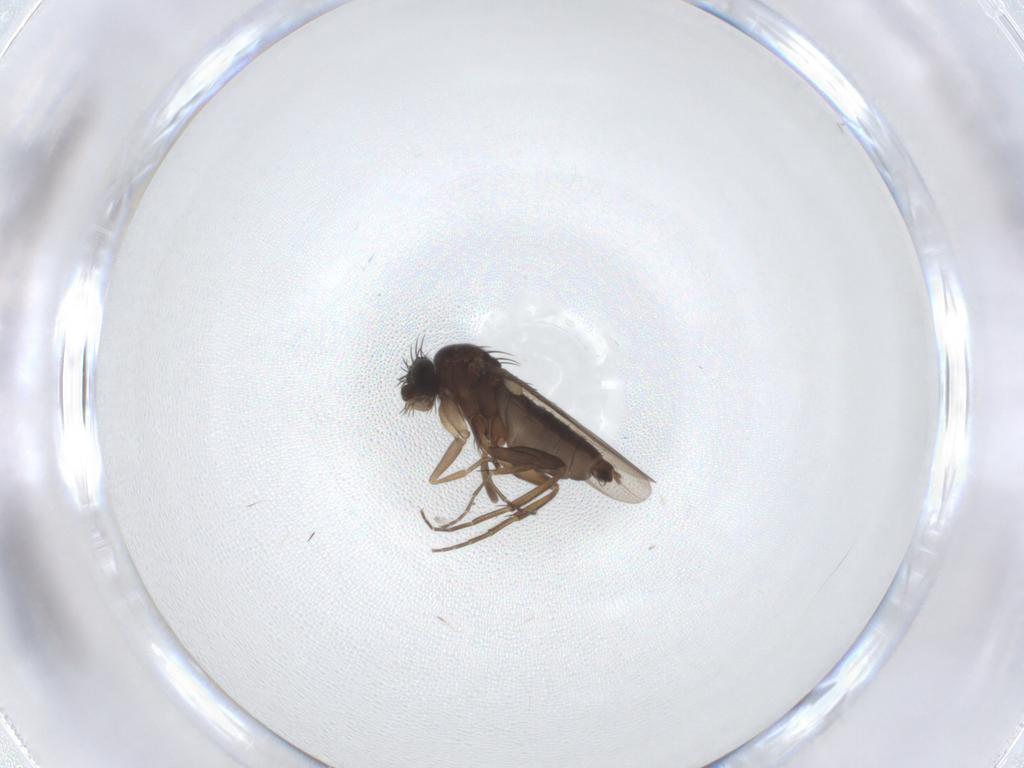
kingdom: Animalia
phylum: Arthropoda
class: Insecta
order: Diptera
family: Phoridae
